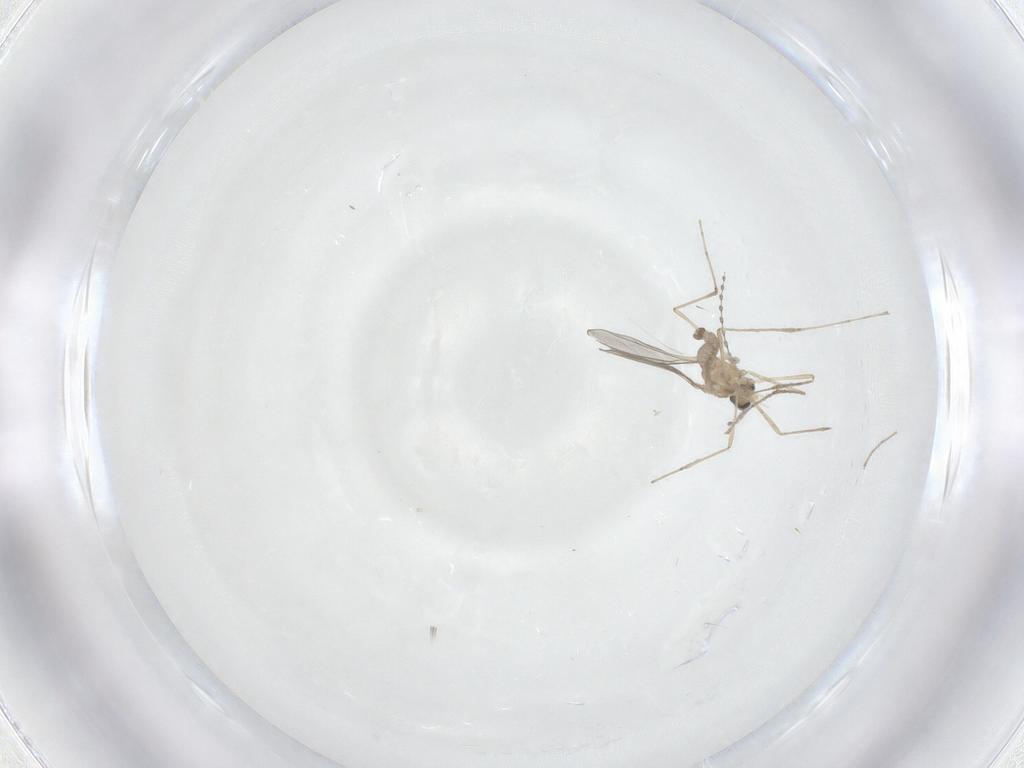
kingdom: Animalia
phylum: Arthropoda
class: Insecta
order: Diptera
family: Cecidomyiidae
